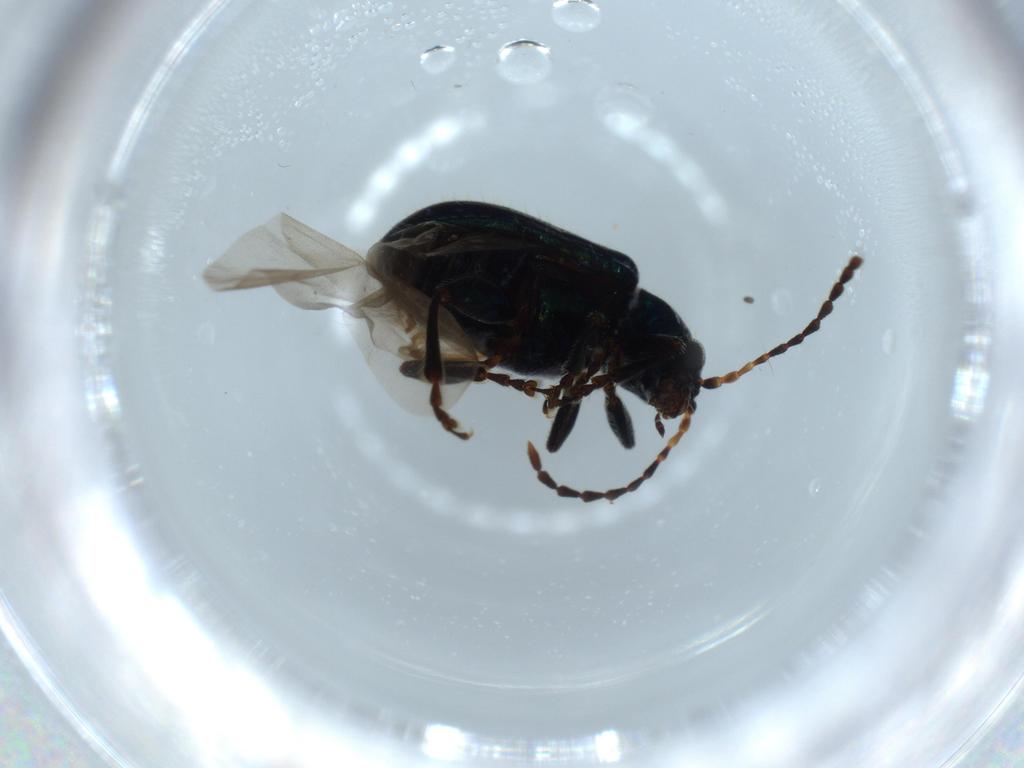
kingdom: Animalia
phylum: Arthropoda
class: Insecta
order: Coleoptera
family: Chrysomelidae
